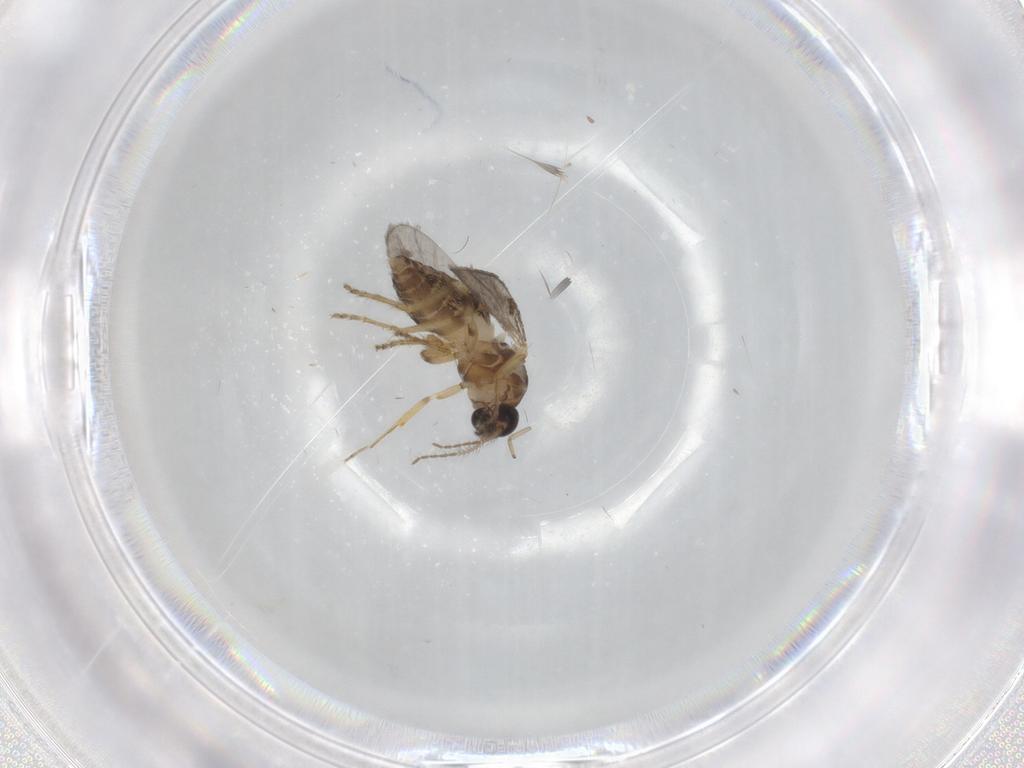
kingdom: Animalia
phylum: Arthropoda
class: Insecta
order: Diptera
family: Ceratopogonidae
